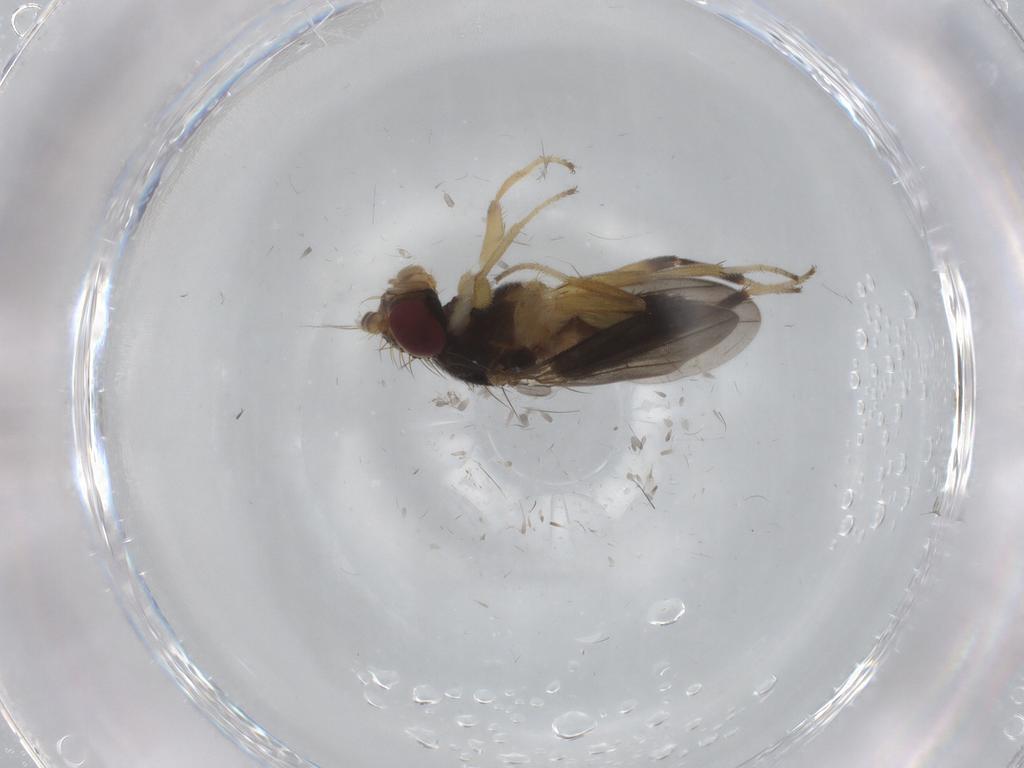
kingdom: Animalia
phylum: Arthropoda
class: Insecta
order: Diptera
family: Clusiidae
